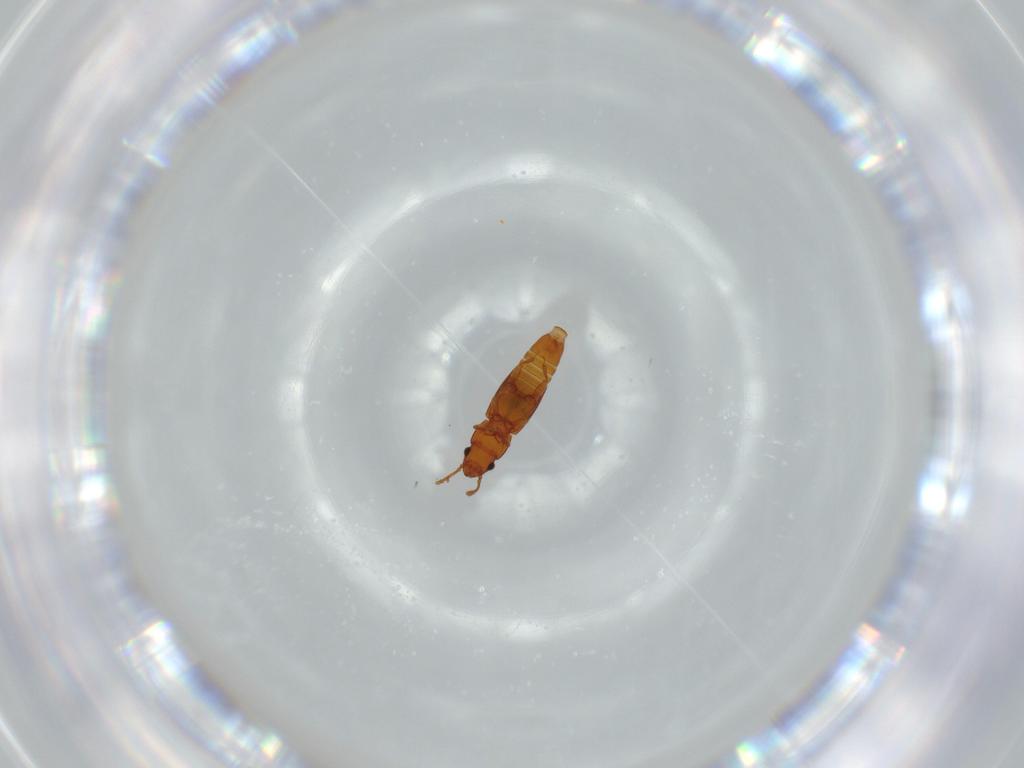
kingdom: Animalia
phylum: Arthropoda
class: Insecta
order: Coleoptera
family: Smicripidae
